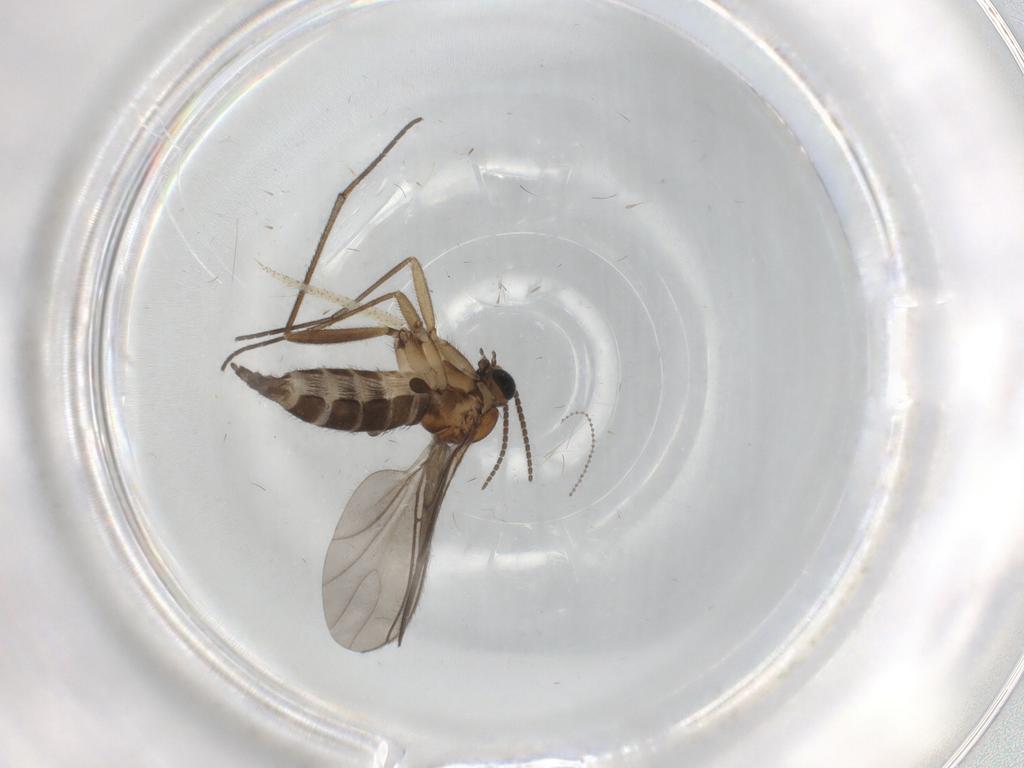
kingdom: Animalia
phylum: Arthropoda
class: Insecta
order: Diptera
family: Sciaridae
